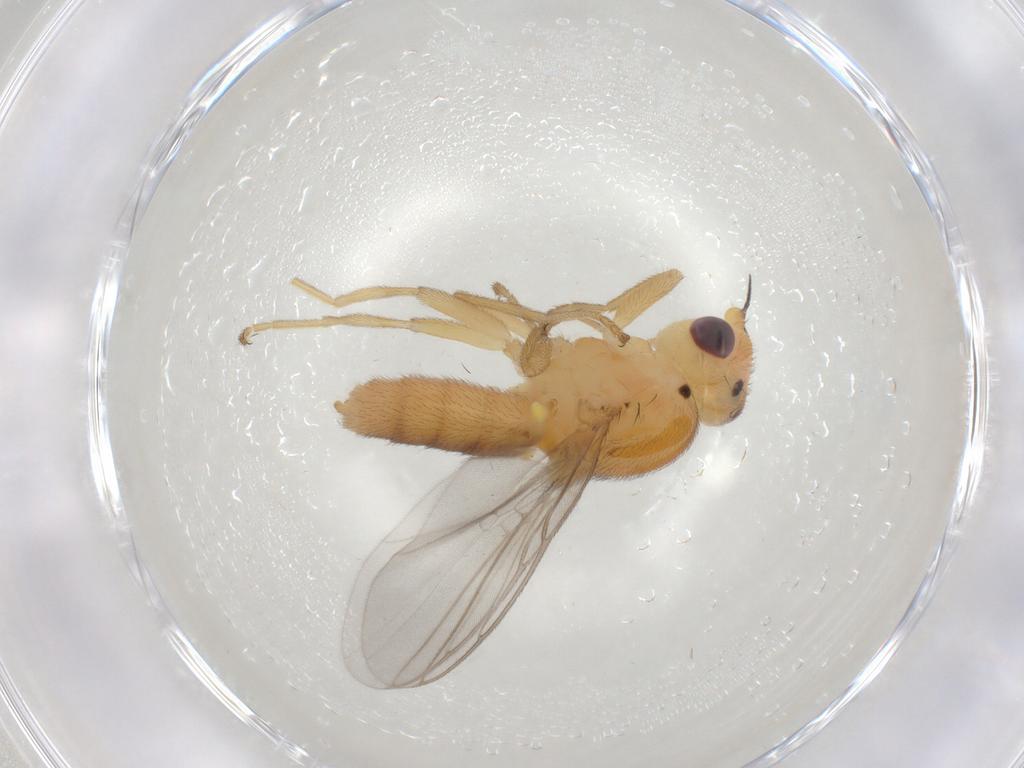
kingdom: Animalia
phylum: Arthropoda
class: Insecta
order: Diptera
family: Chloropidae
